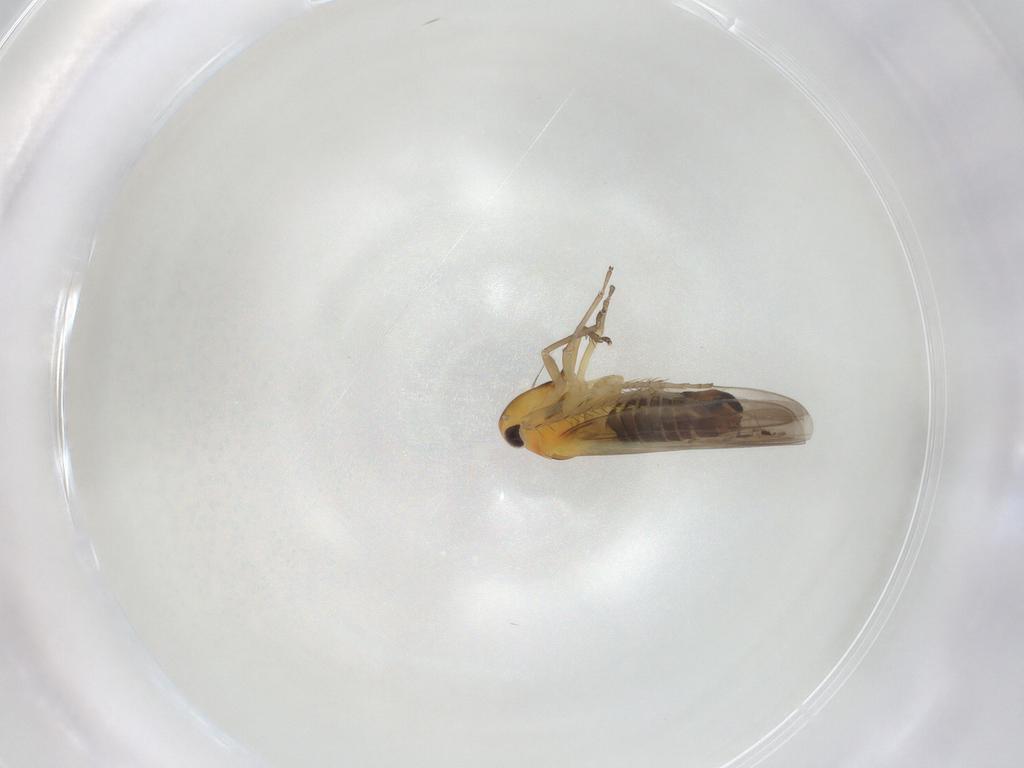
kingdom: Animalia
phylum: Arthropoda
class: Insecta
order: Hemiptera
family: Cicadellidae
